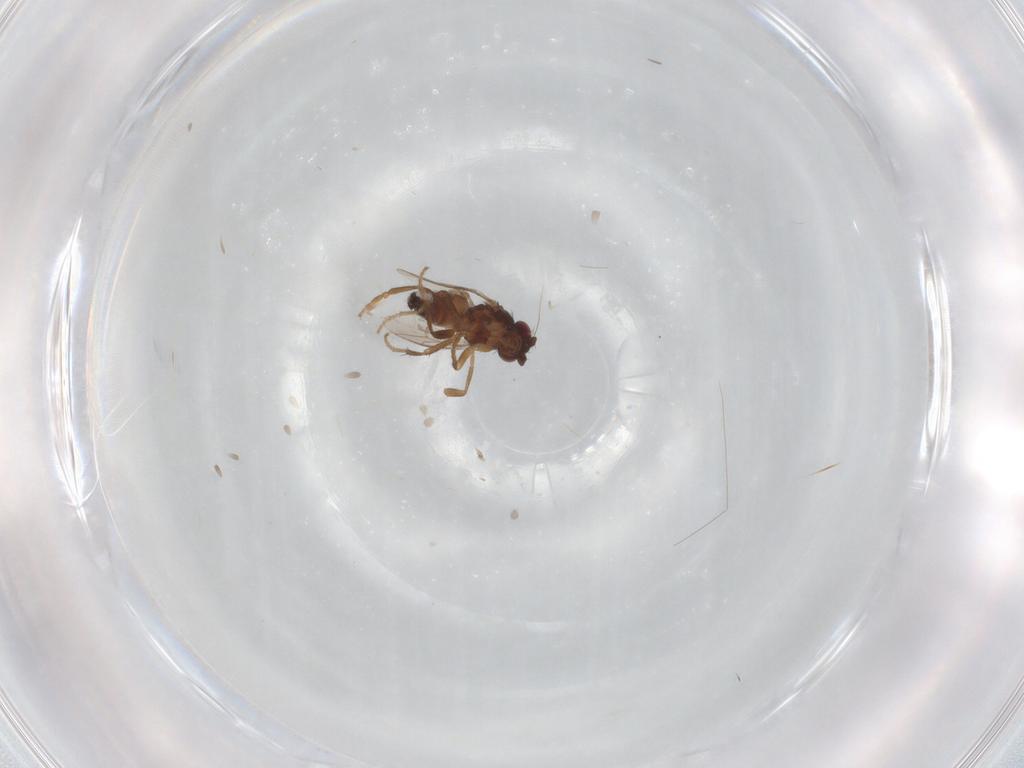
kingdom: Animalia
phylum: Arthropoda
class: Insecta
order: Diptera
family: Sphaeroceridae
